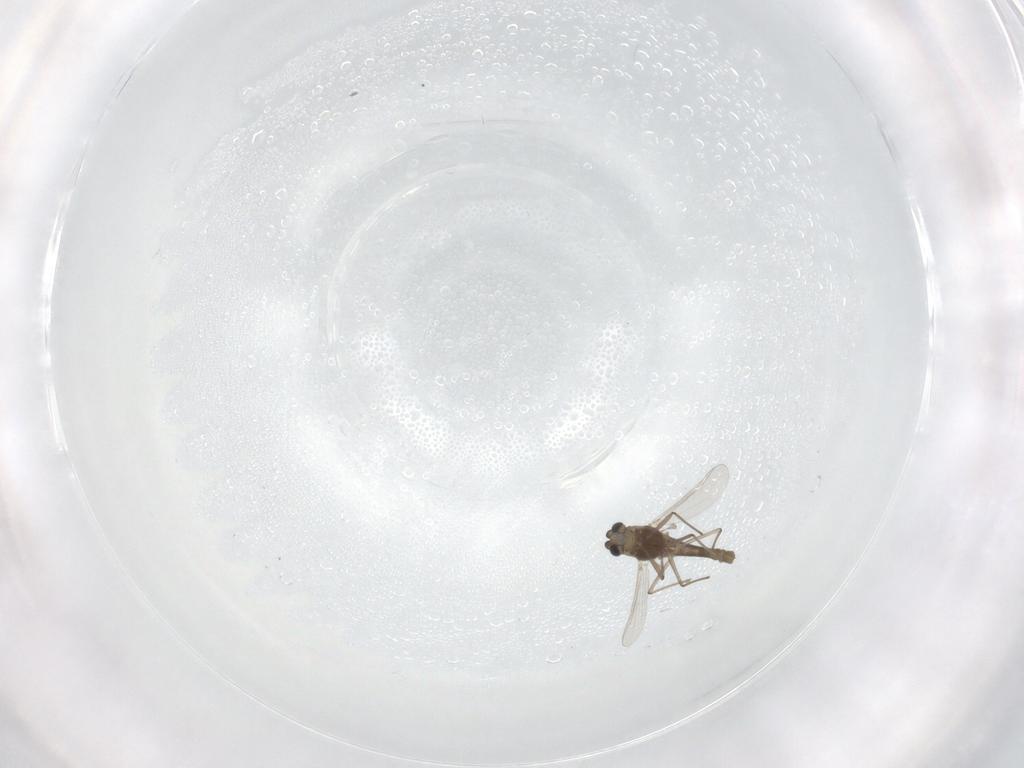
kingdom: Animalia
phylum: Arthropoda
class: Insecta
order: Diptera
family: Chironomidae
